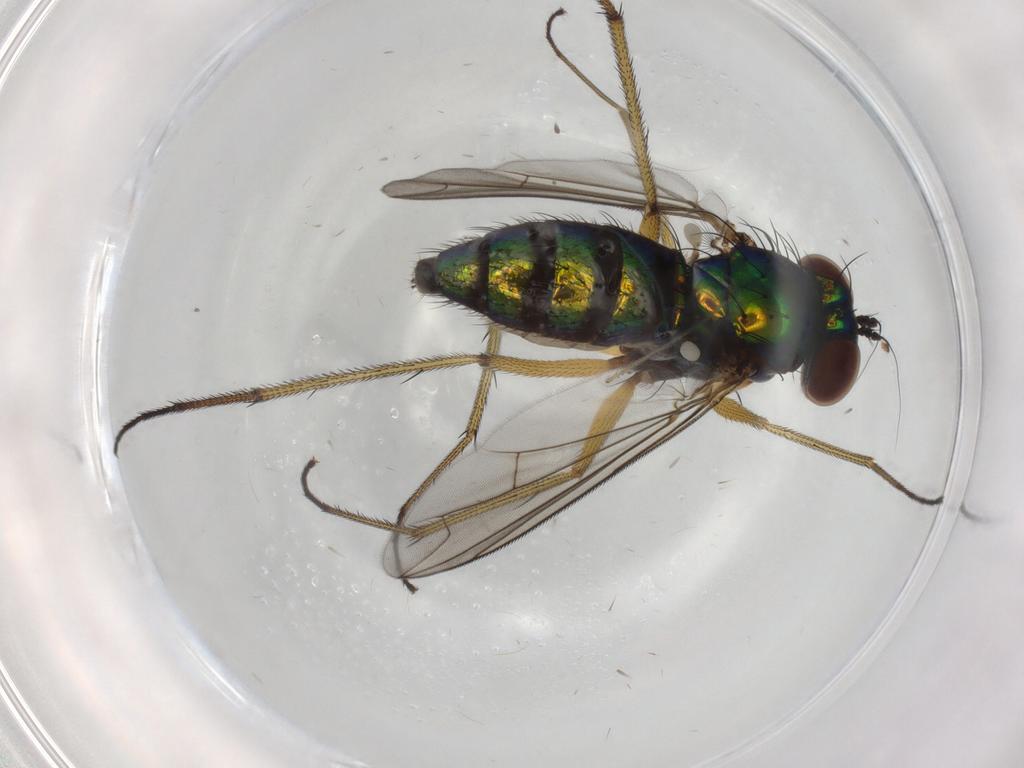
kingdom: Animalia
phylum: Arthropoda
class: Insecta
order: Diptera
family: Dolichopodidae
